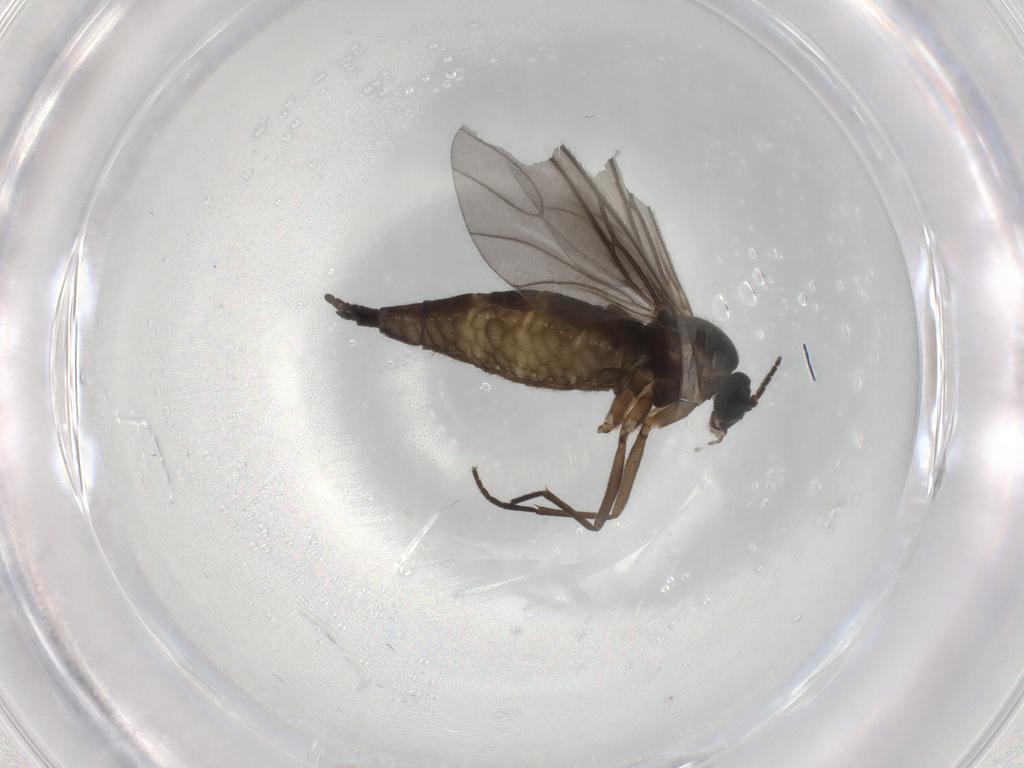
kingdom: Animalia
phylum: Arthropoda
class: Insecta
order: Diptera
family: Sciaridae
